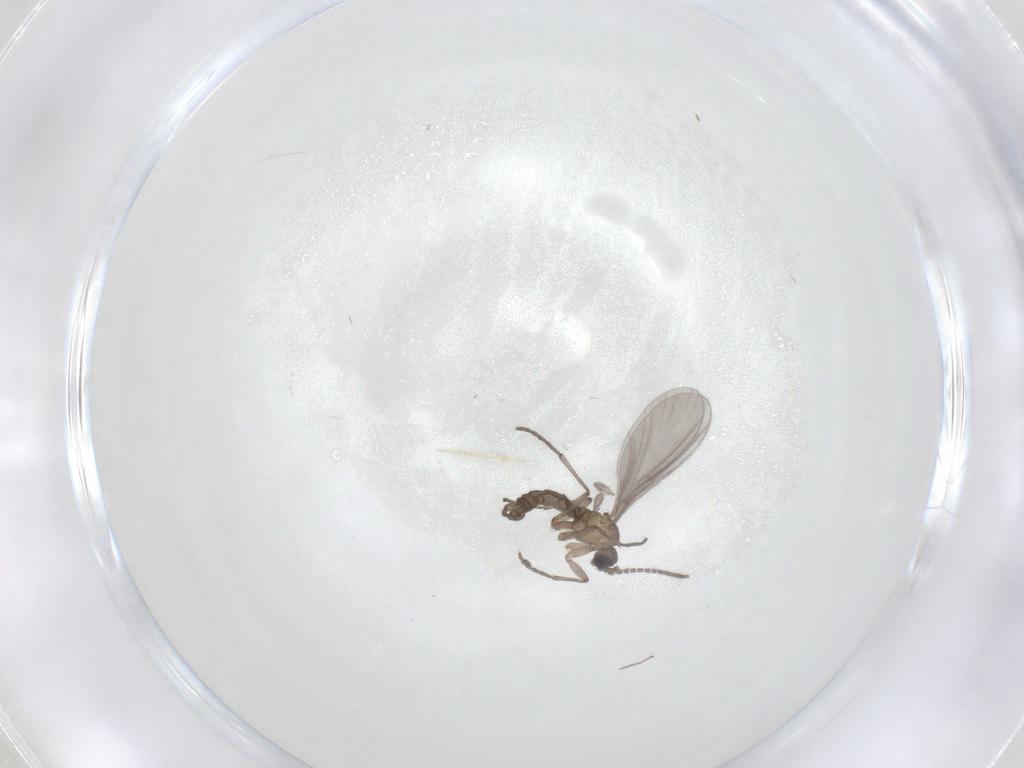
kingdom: Animalia
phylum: Arthropoda
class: Insecta
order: Diptera
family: Sciaridae
